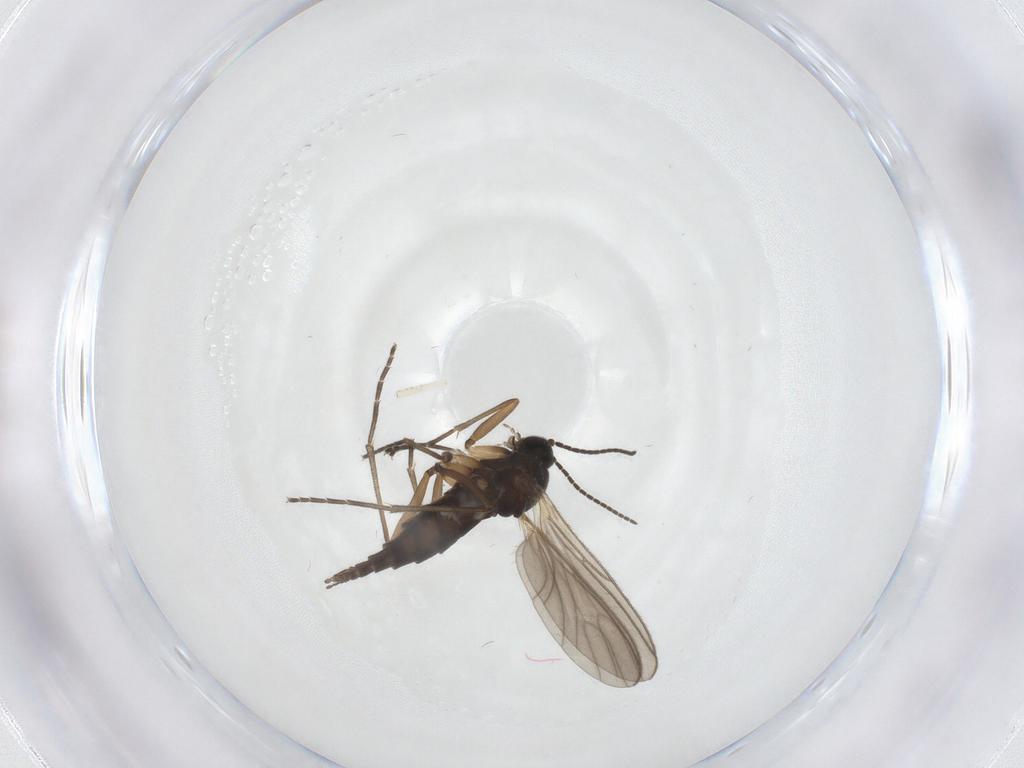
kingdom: Animalia
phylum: Arthropoda
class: Insecta
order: Diptera
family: Sciaridae
